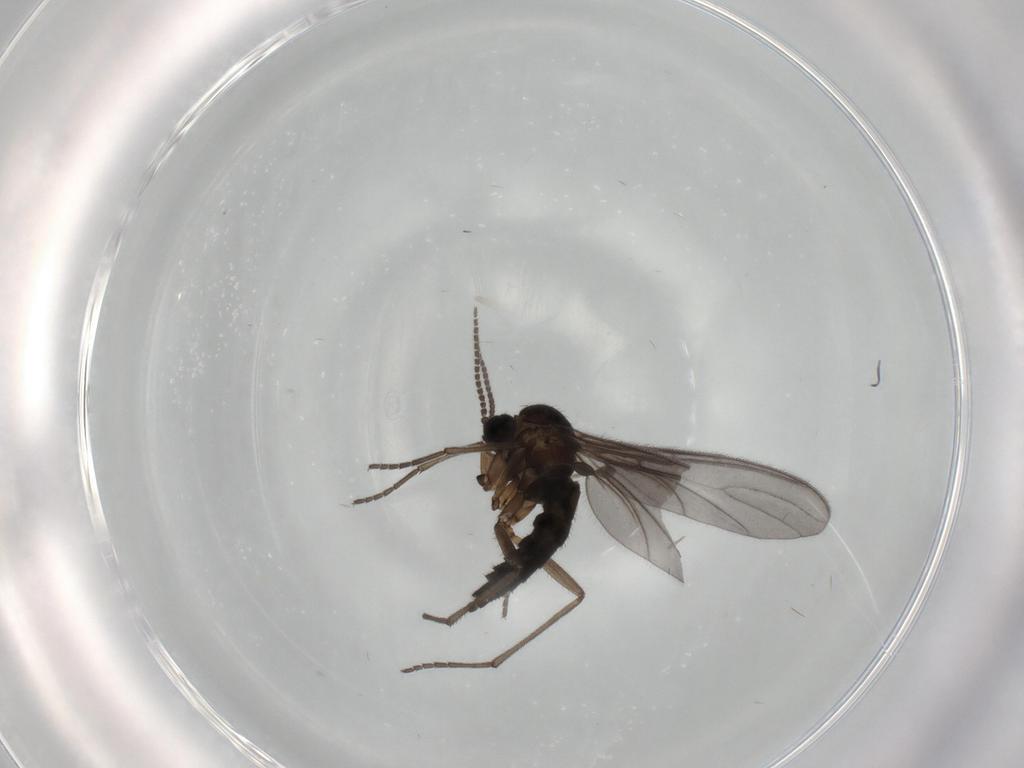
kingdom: Animalia
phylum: Arthropoda
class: Insecta
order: Diptera
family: Sciaridae
